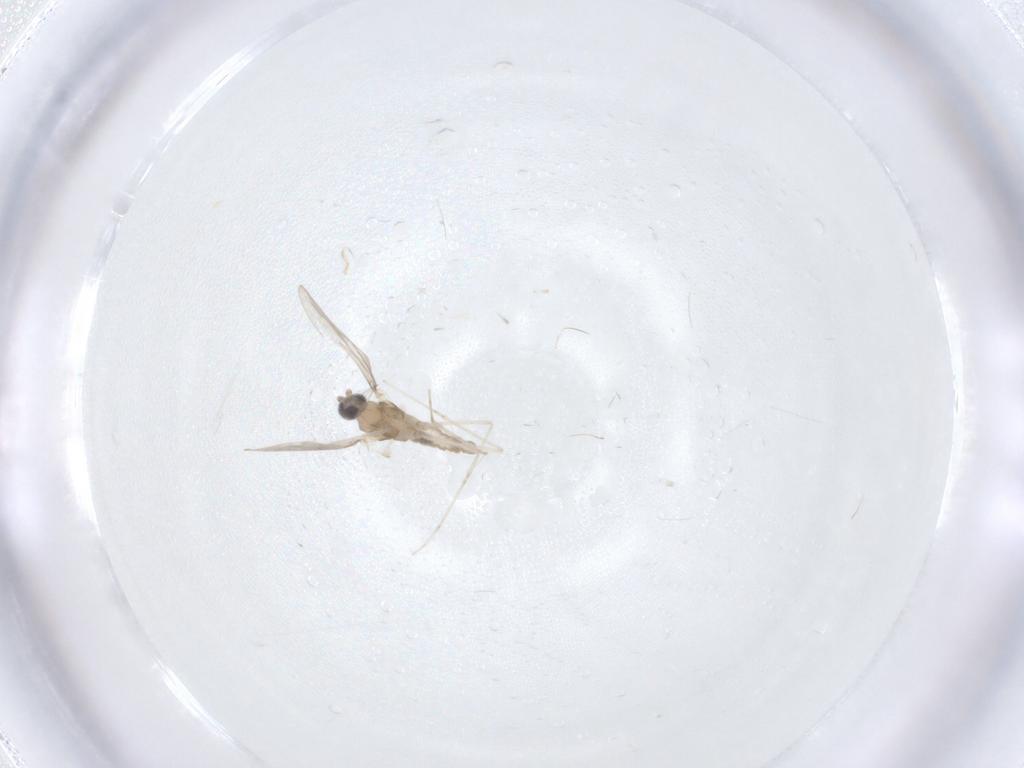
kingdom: Animalia
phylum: Arthropoda
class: Insecta
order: Diptera
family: Cecidomyiidae
